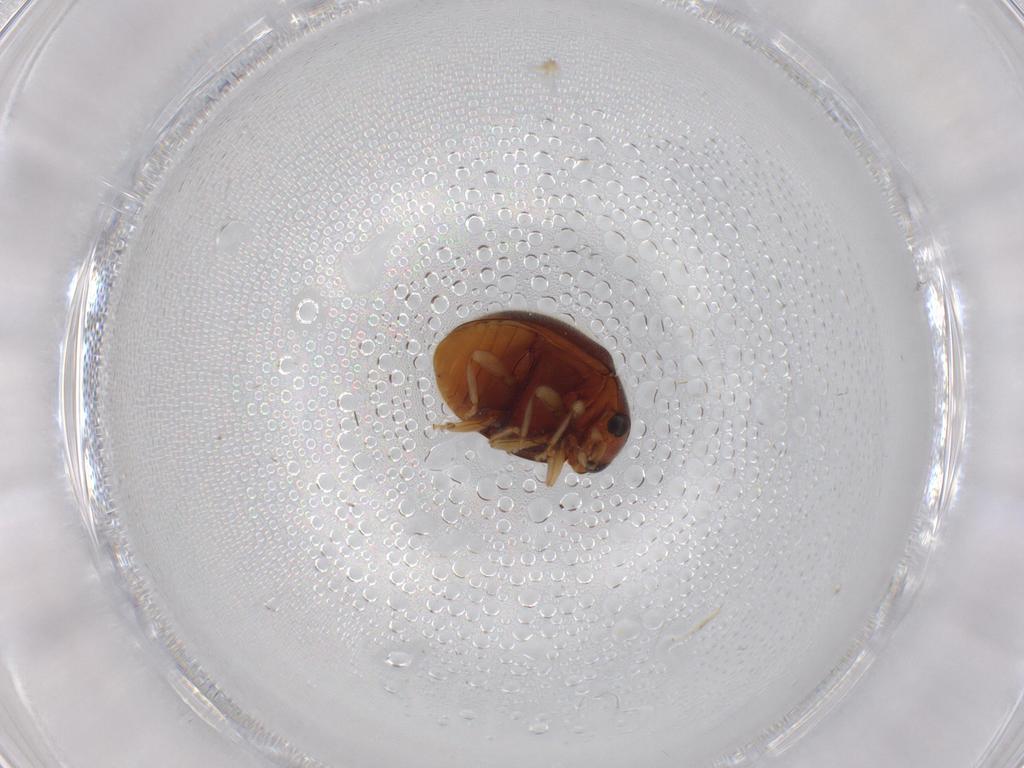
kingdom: Animalia
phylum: Arthropoda
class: Insecta
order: Coleoptera
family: Coccinellidae
